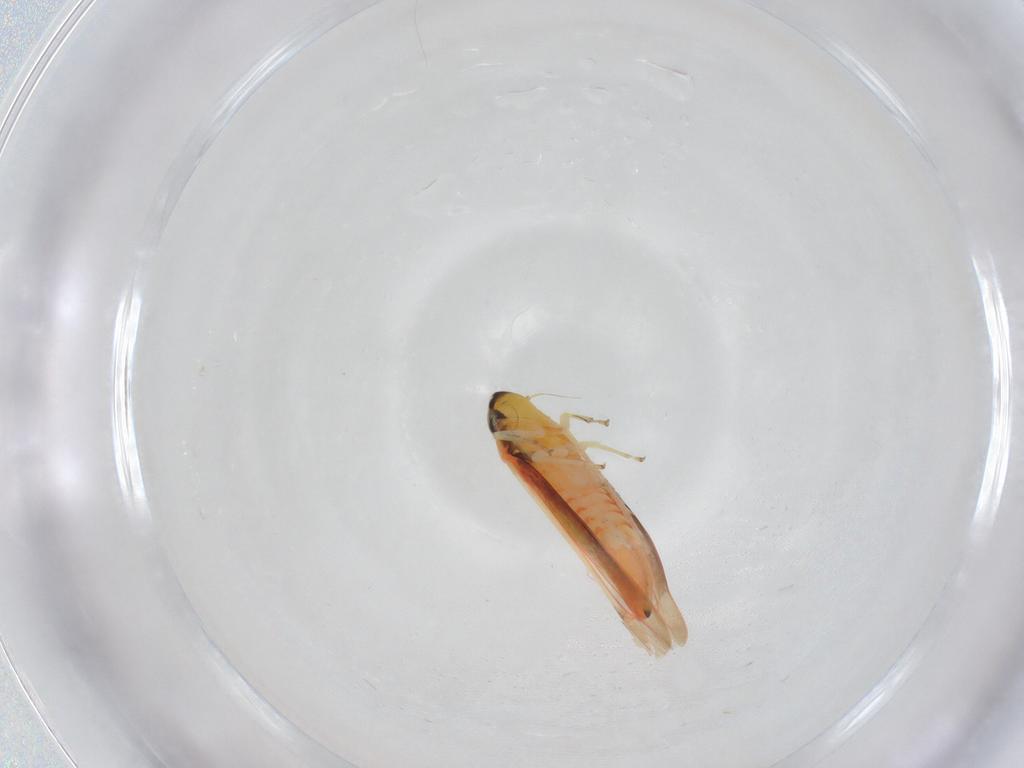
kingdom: Animalia
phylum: Arthropoda
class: Insecta
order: Hemiptera
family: Cicadellidae
